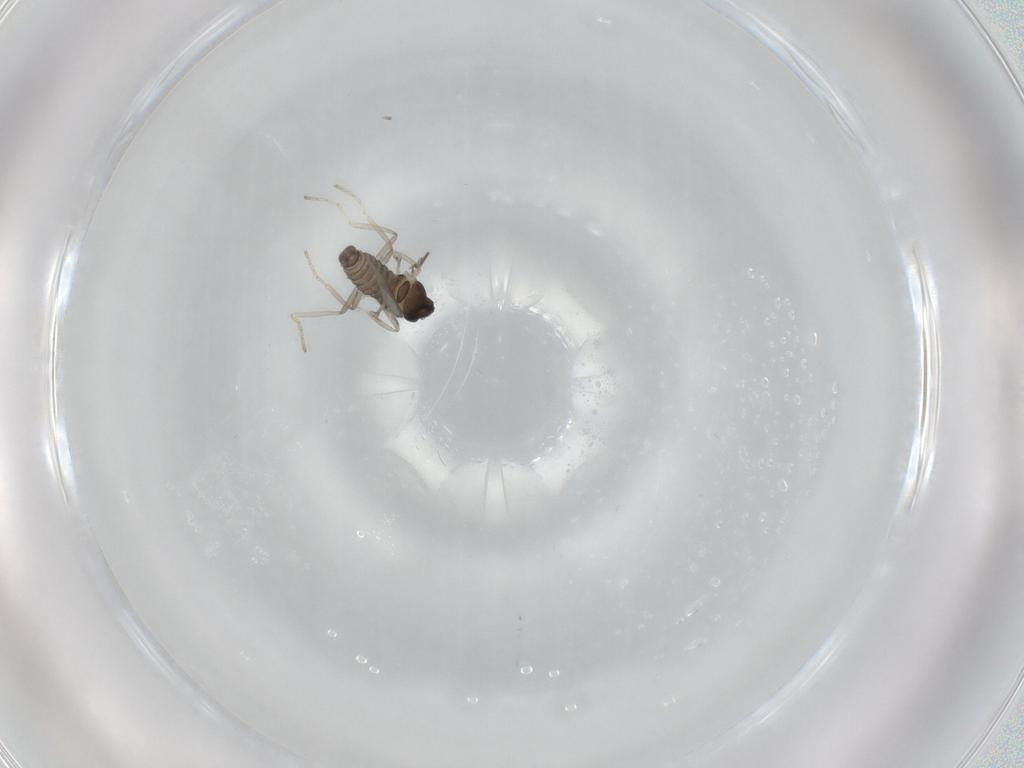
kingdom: Animalia
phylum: Arthropoda
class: Insecta
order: Diptera
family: Cecidomyiidae
